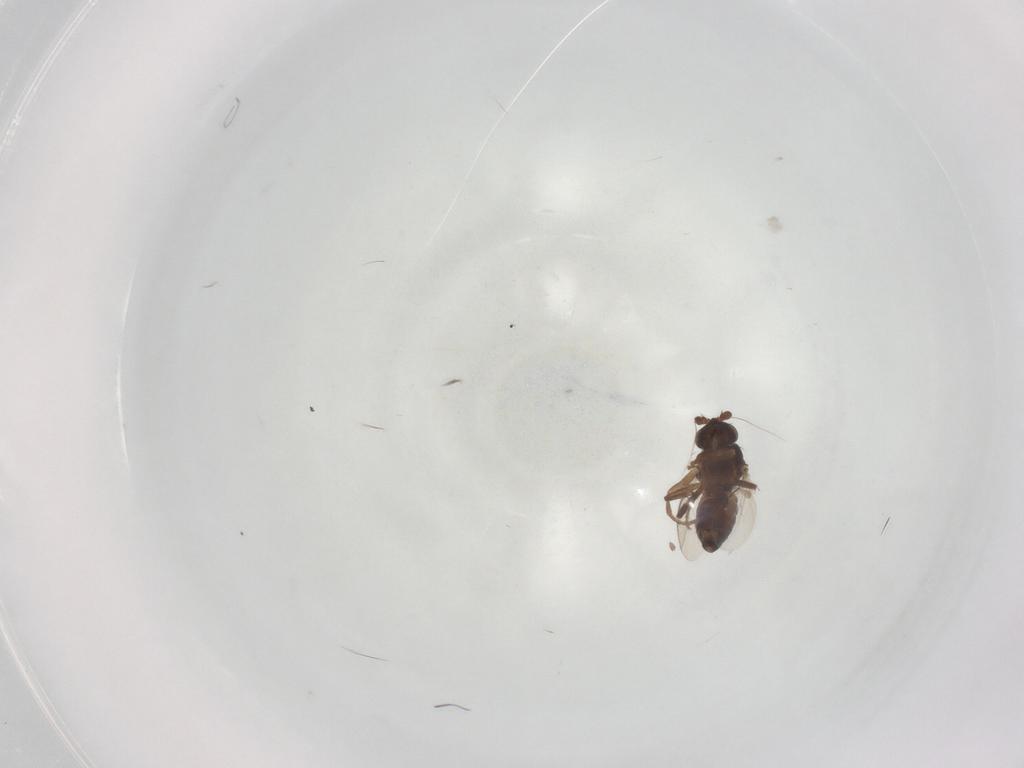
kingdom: Animalia
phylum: Arthropoda
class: Insecta
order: Diptera
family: Sphaeroceridae
